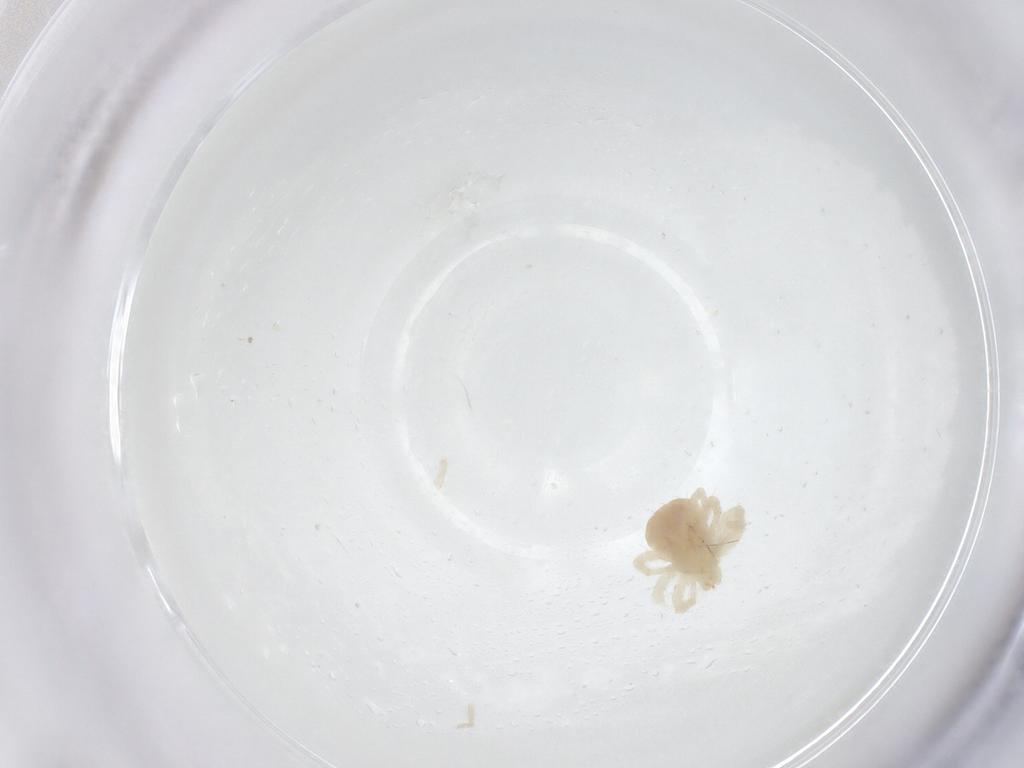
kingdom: Animalia
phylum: Arthropoda
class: Arachnida
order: Trombidiformes
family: Anystidae
